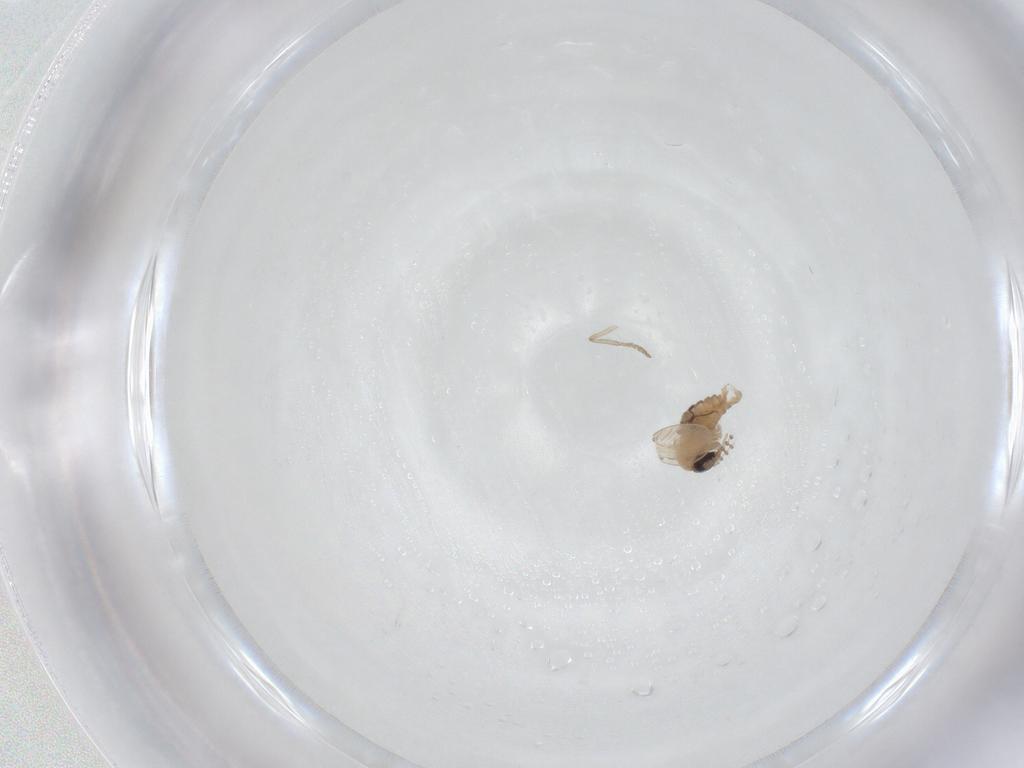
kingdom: Animalia
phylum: Arthropoda
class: Insecta
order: Diptera
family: Psychodidae
